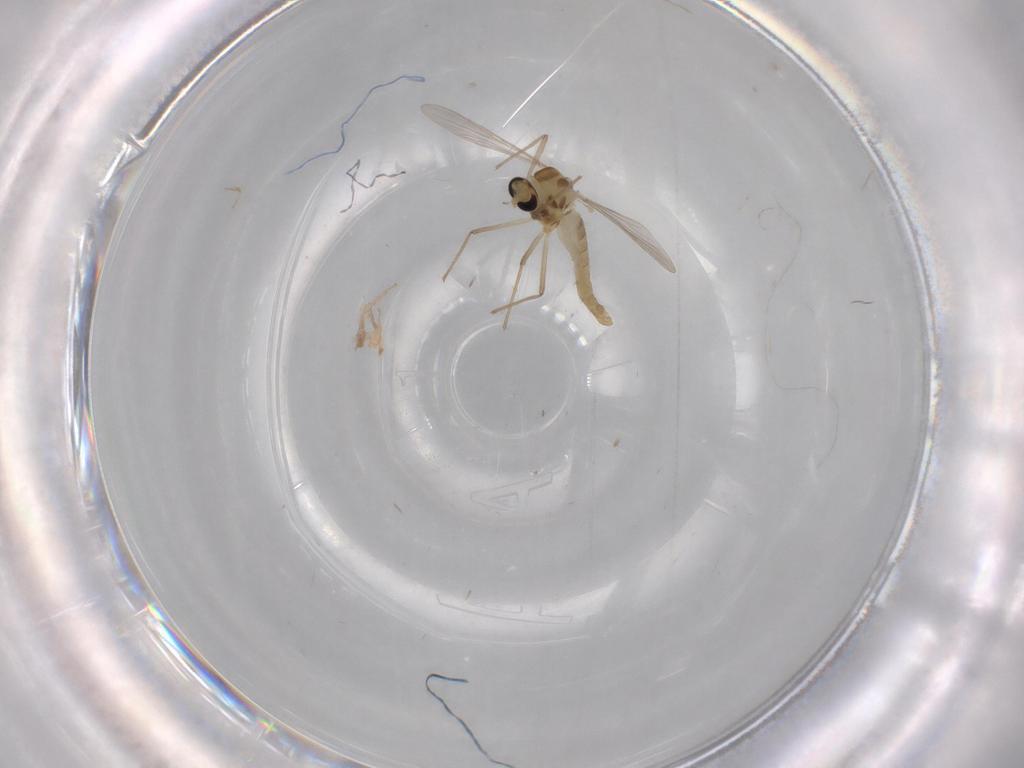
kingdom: Animalia
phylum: Arthropoda
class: Insecta
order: Diptera
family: Chironomidae
